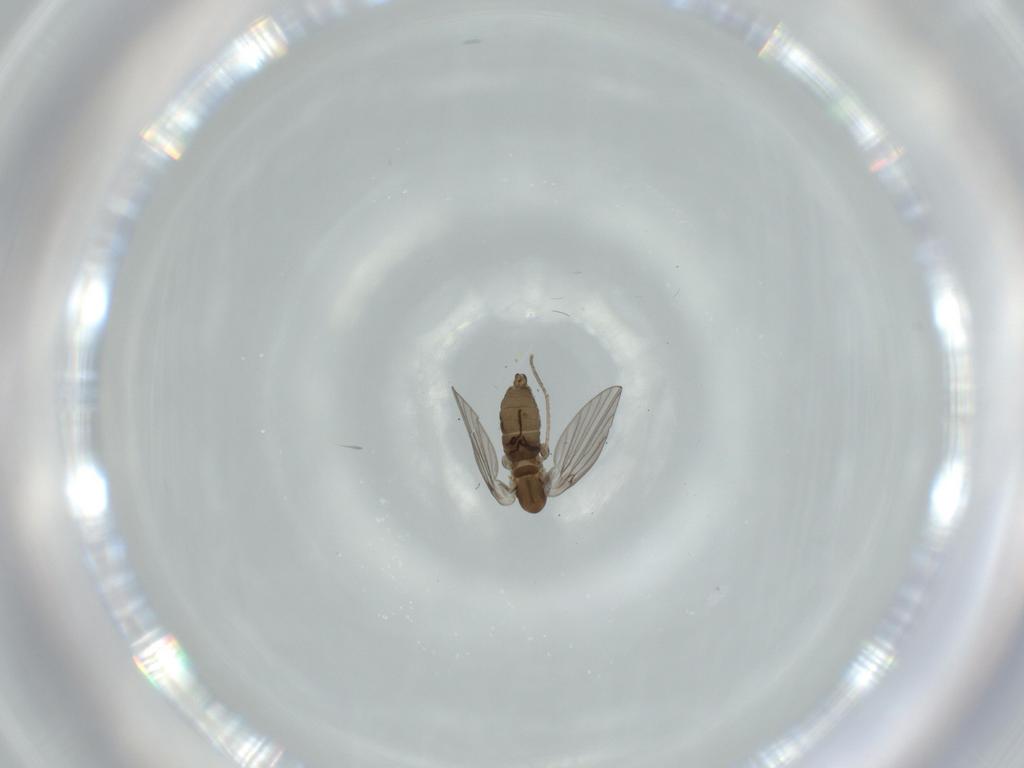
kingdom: Animalia
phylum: Arthropoda
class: Insecta
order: Diptera
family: Psychodidae
